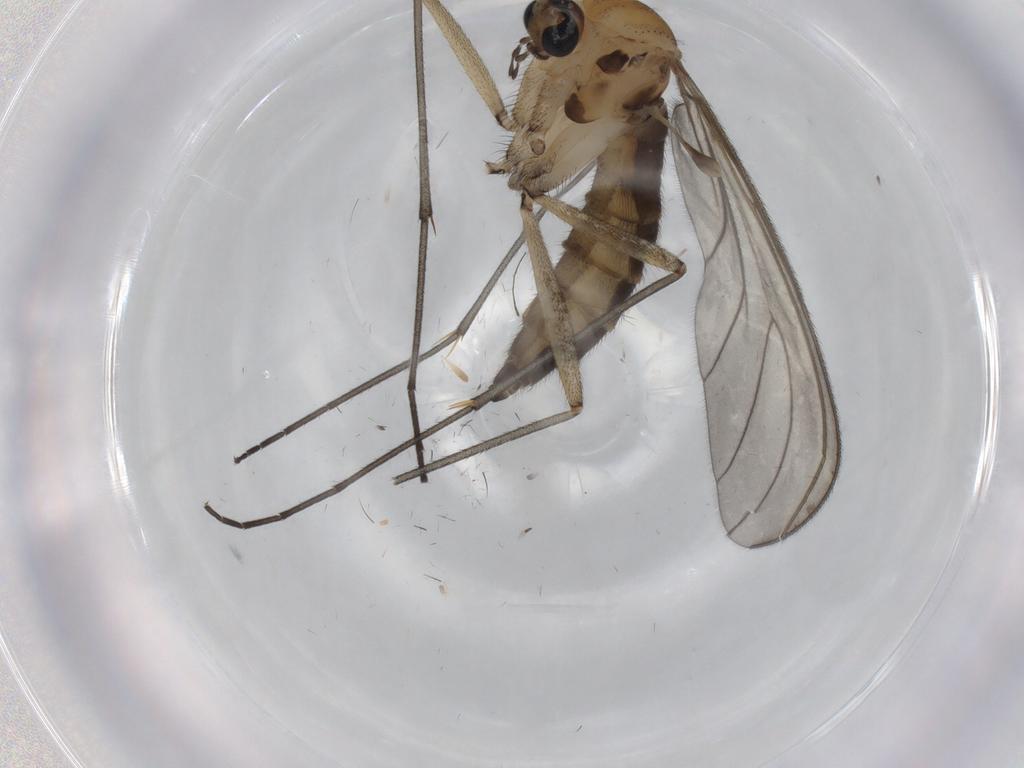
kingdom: Animalia
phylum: Arthropoda
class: Insecta
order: Diptera
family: Sciaridae
